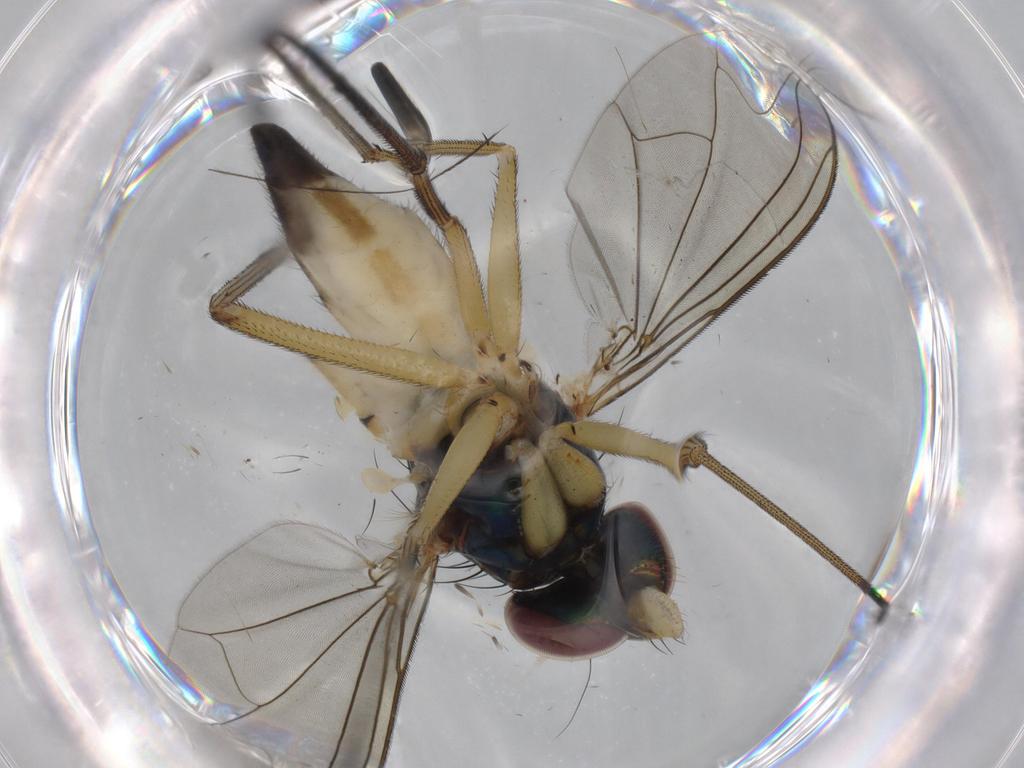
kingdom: Animalia
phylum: Arthropoda
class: Insecta
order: Diptera
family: Dolichopodidae
